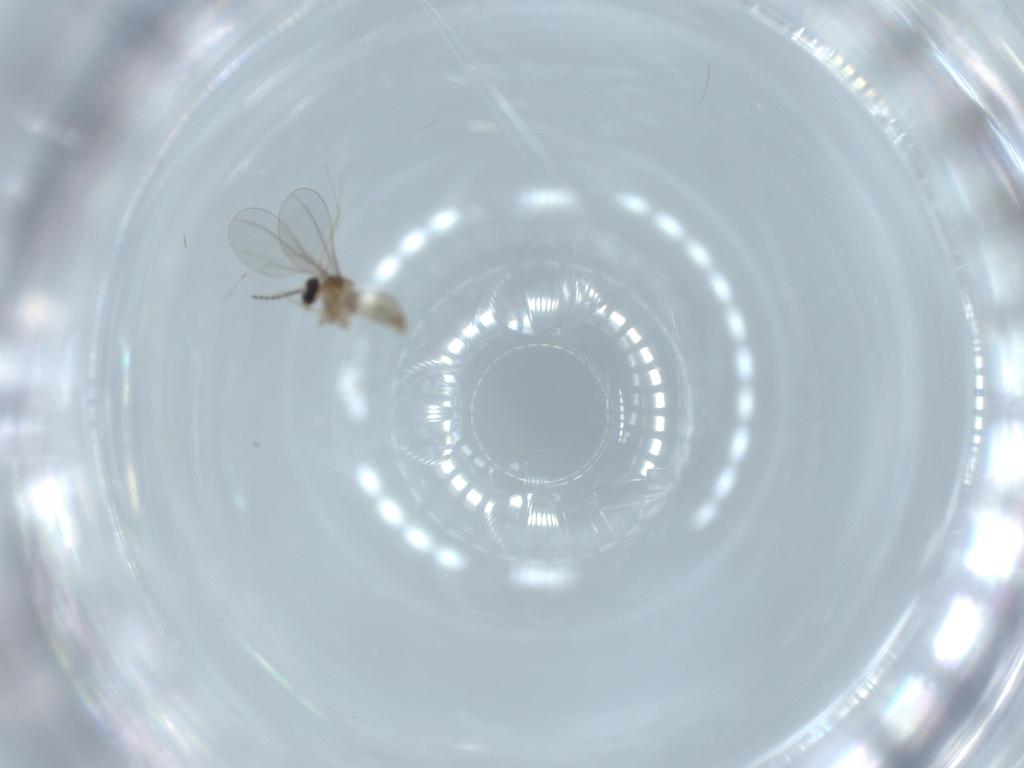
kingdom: Animalia
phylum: Arthropoda
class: Insecta
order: Diptera
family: Cecidomyiidae
